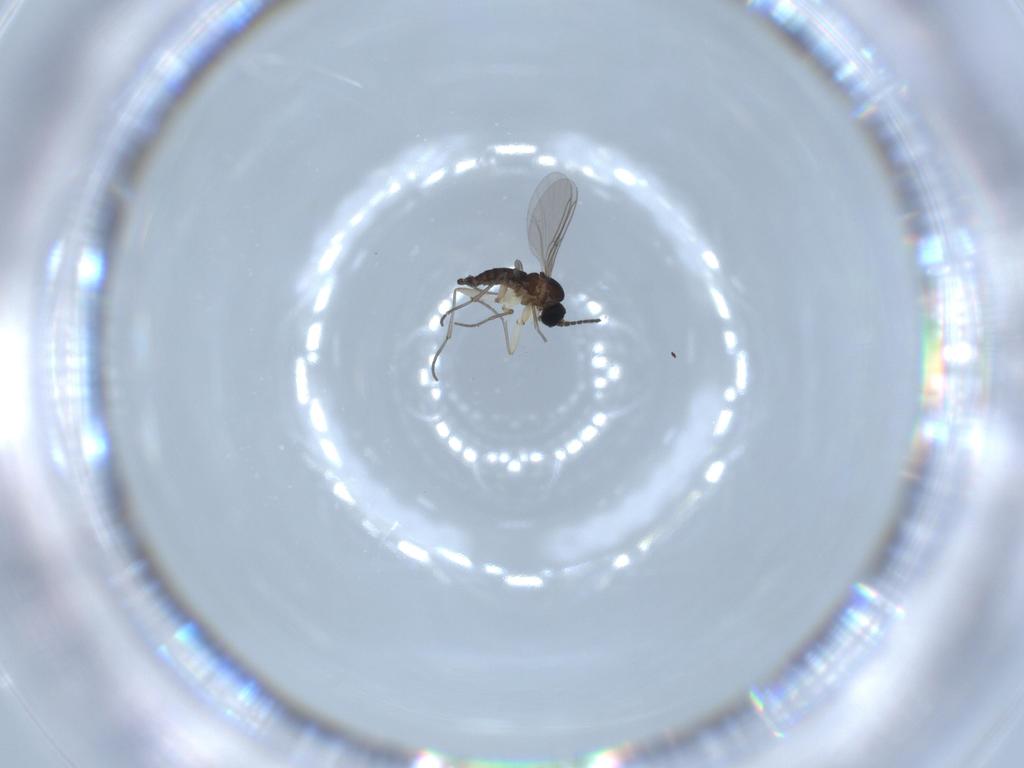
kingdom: Animalia
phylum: Arthropoda
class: Insecta
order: Diptera
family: Sciaridae
